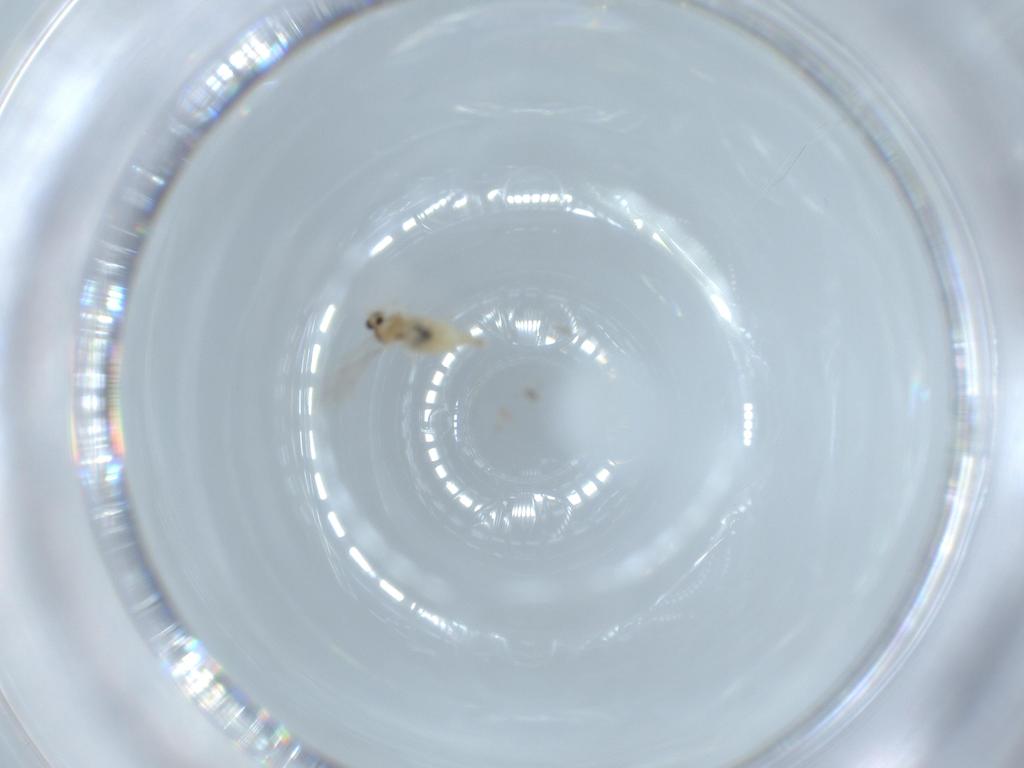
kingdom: Animalia
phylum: Arthropoda
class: Insecta
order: Diptera
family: Cecidomyiidae
